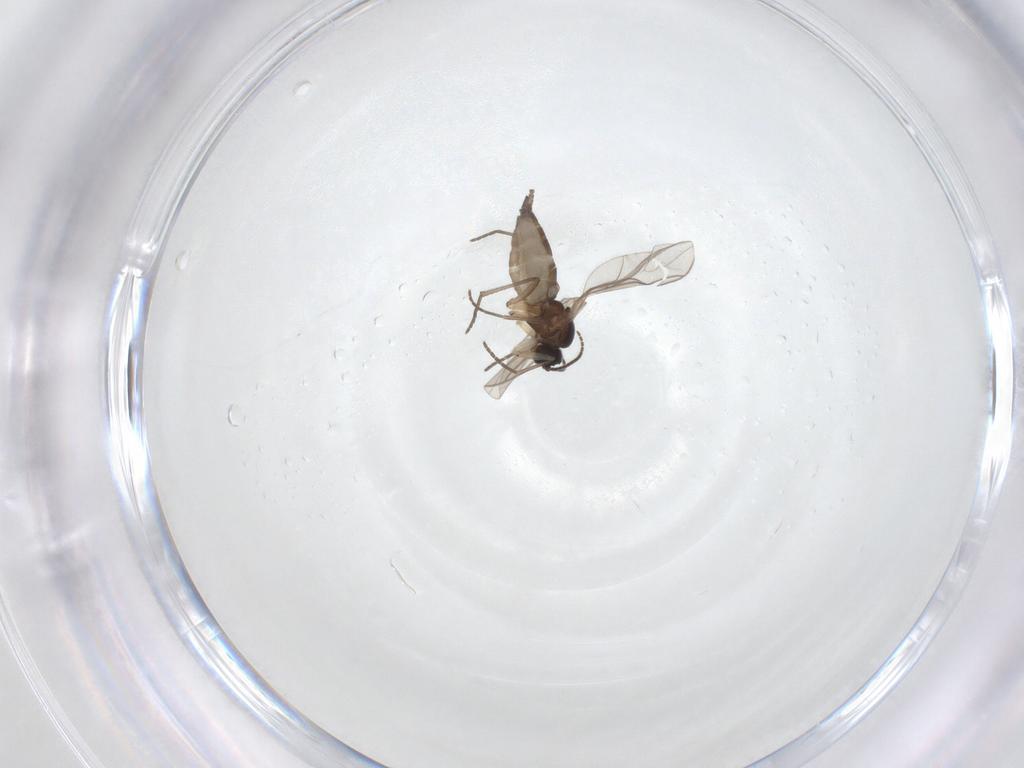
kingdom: Animalia
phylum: Arthropoda
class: Insecta
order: Diptera
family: Sciaridae
